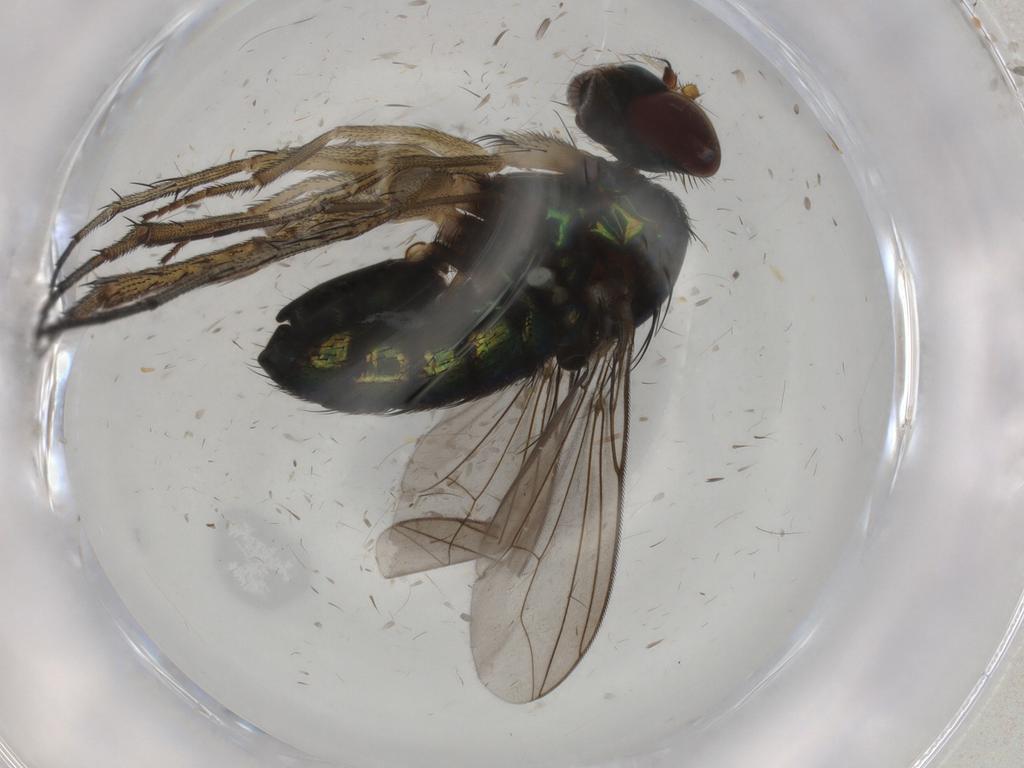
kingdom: Animalia
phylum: Arthropoda
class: Insecta
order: Diptera
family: Dolichopodidae
